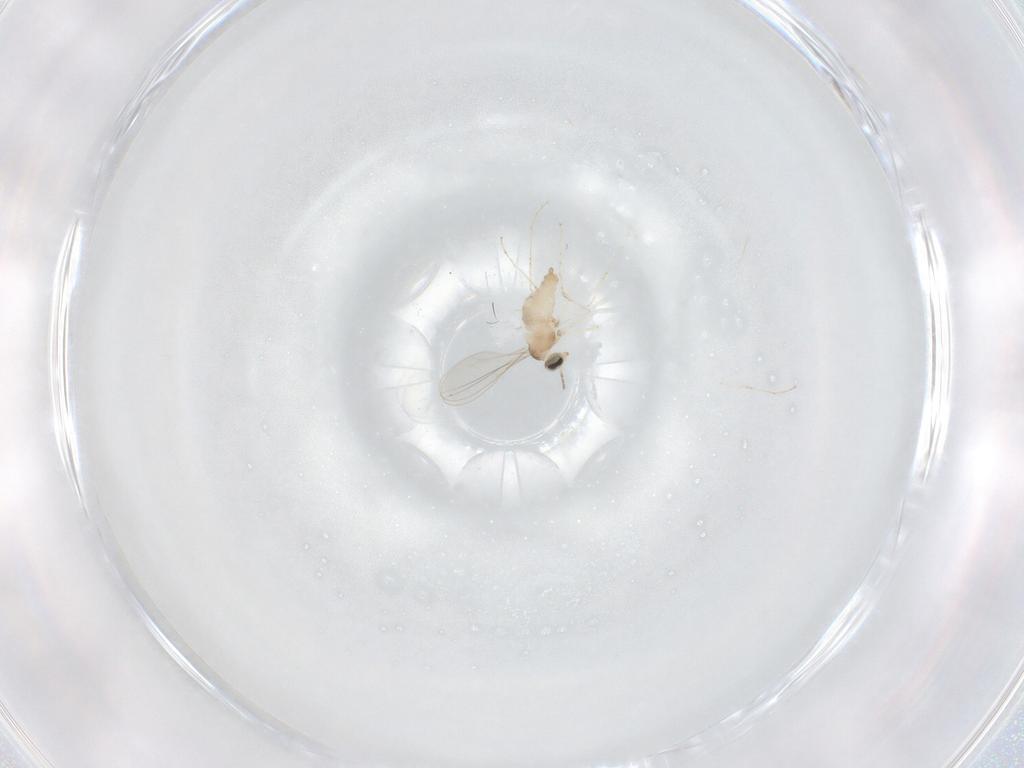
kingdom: Animalia
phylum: Arthropoda
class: Insecta
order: Diptera
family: Cecidomyiidae
